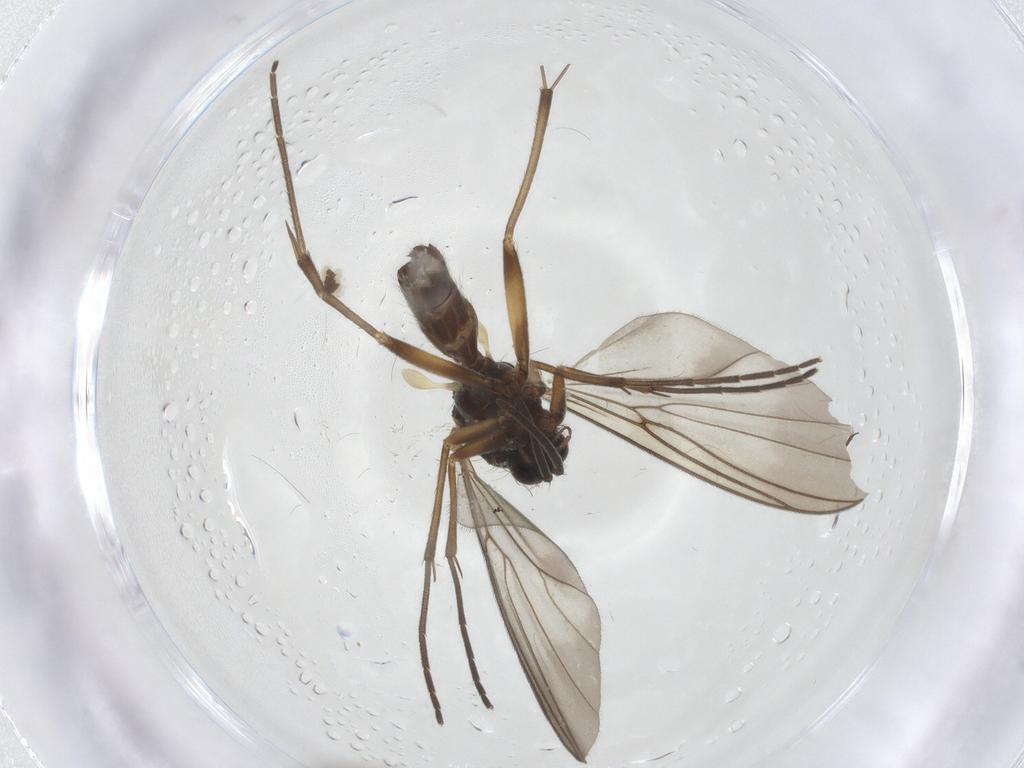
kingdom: Animalia
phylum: Arthropoda
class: Insecta
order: Diptera
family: Mycetophilidae
